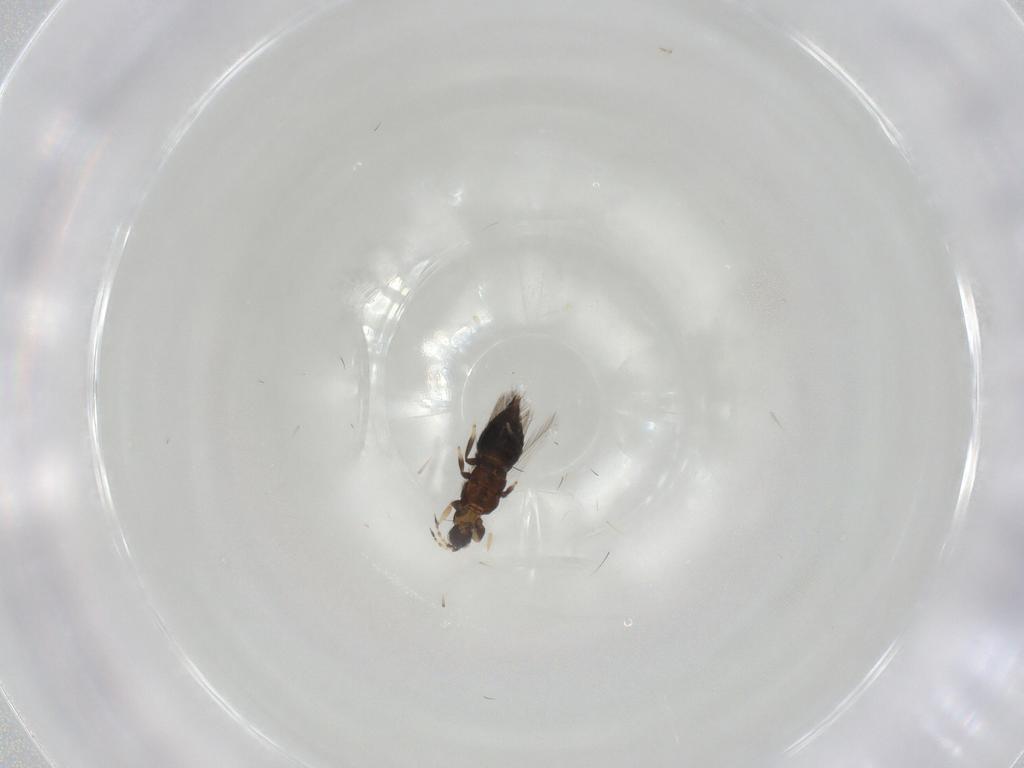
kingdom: Animalia
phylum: Arthropoda
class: Insecta
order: Thysanoptera
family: Thripidae
